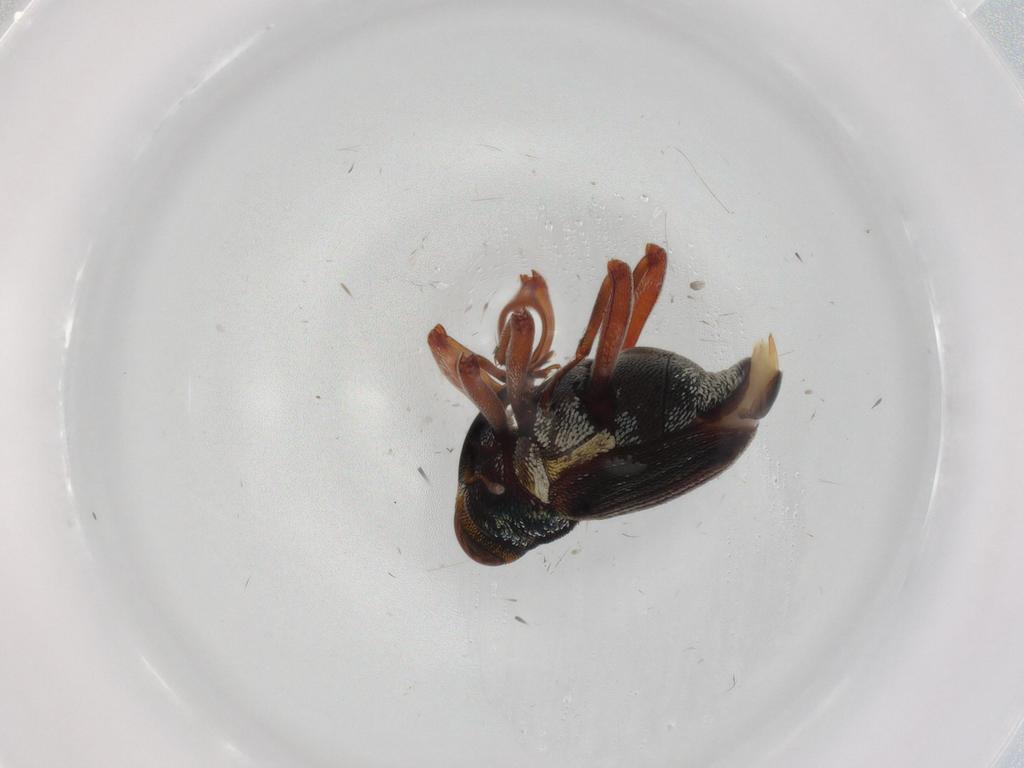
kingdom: Animalia
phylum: Arthropoda
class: Insecta
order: Coleoptera
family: Curculionidae
